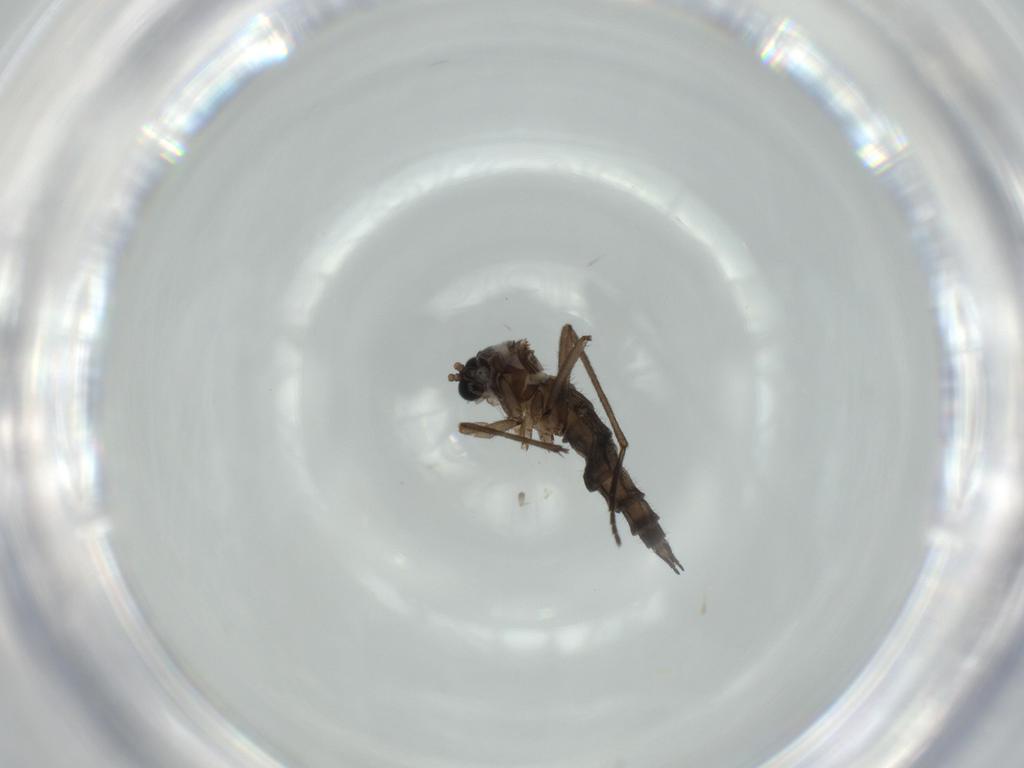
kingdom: Animalia
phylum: Arthropoda
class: Insecta
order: Diptera
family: Sciaridae
